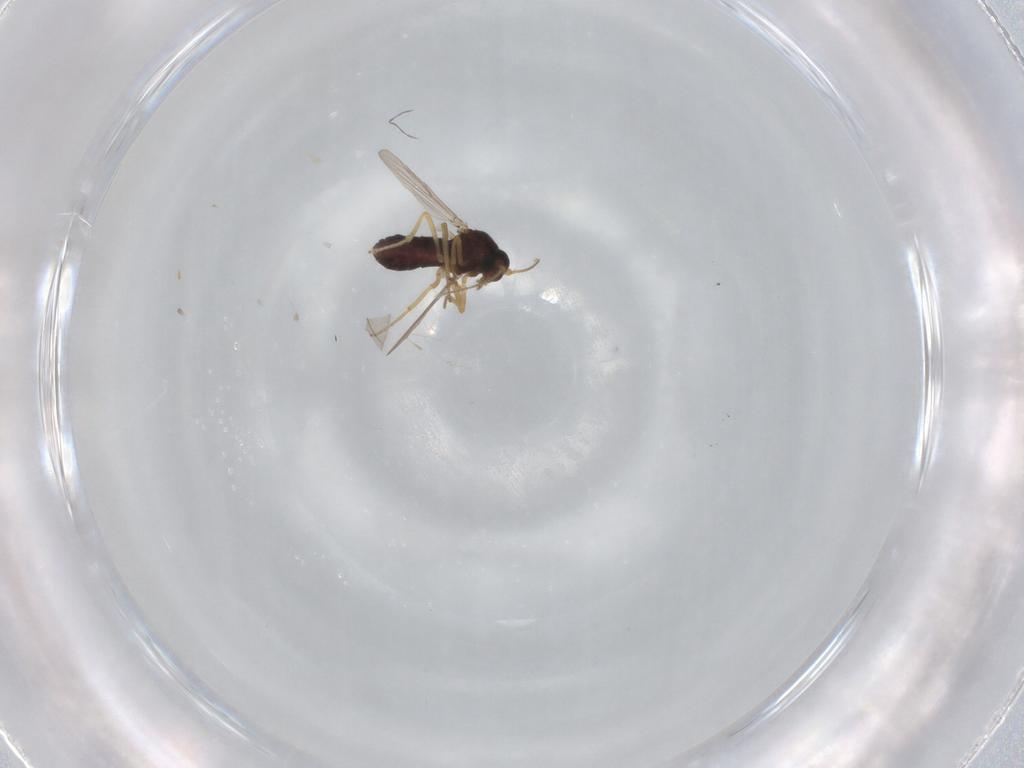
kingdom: Animalia
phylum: Arthropoda
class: Insecta
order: Diptera
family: Ceratopogonidae
